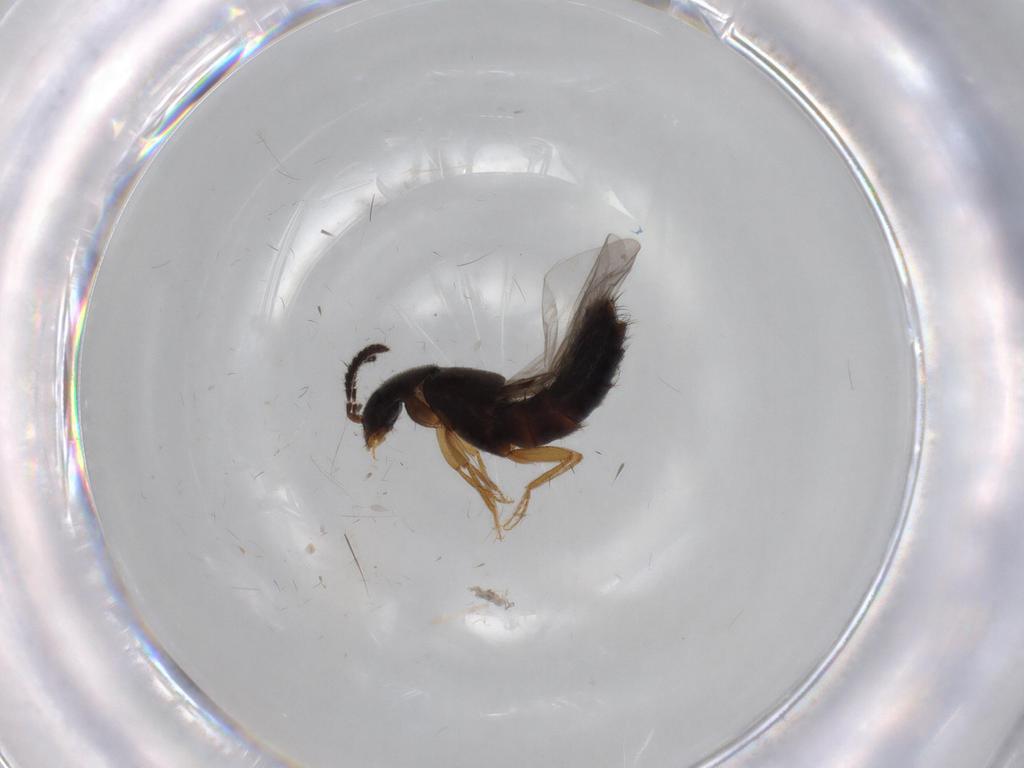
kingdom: Animalia
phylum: Arthropoda
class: Insecta
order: Coleoptera
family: Staphylinidae
